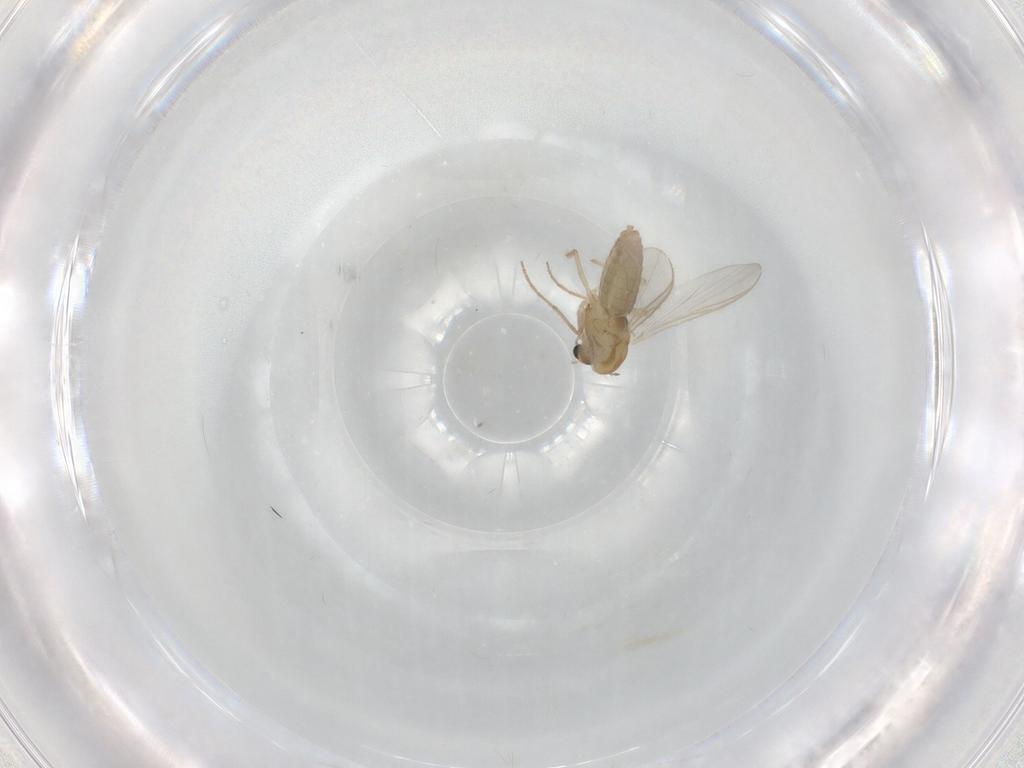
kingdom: Animalia
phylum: Arthropoda
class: Insecta
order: Diptera
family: Chironomidae
